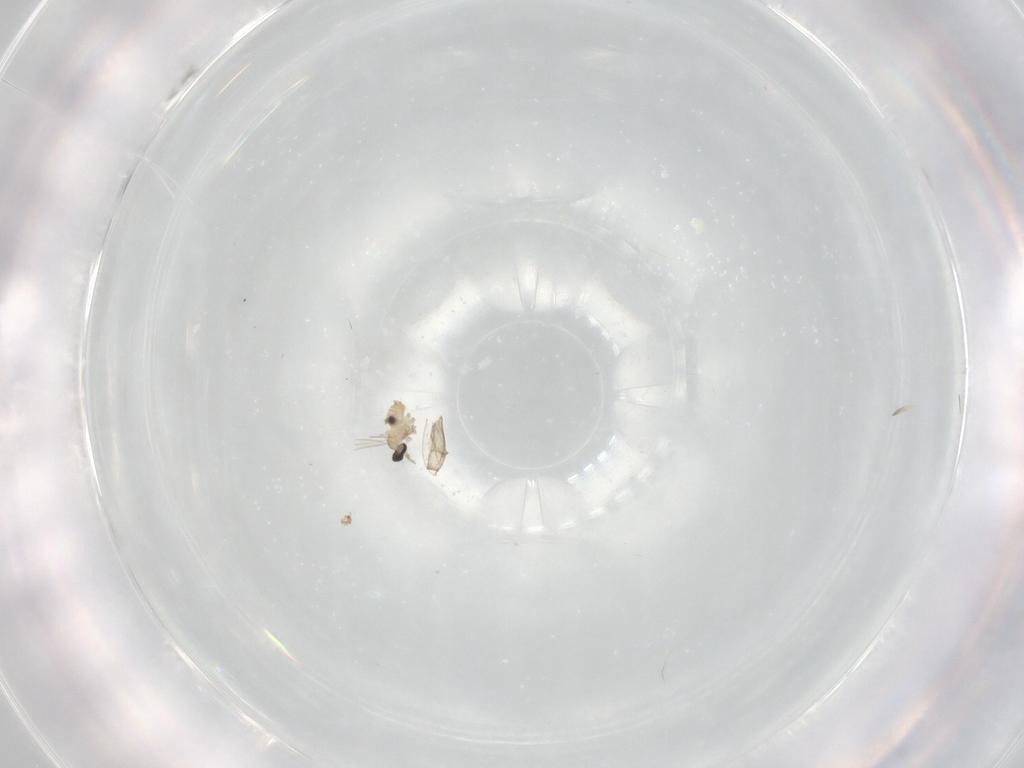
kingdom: Animalia
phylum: Arthropoda
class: Insecta
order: Diptera
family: Cecidomyiidae
